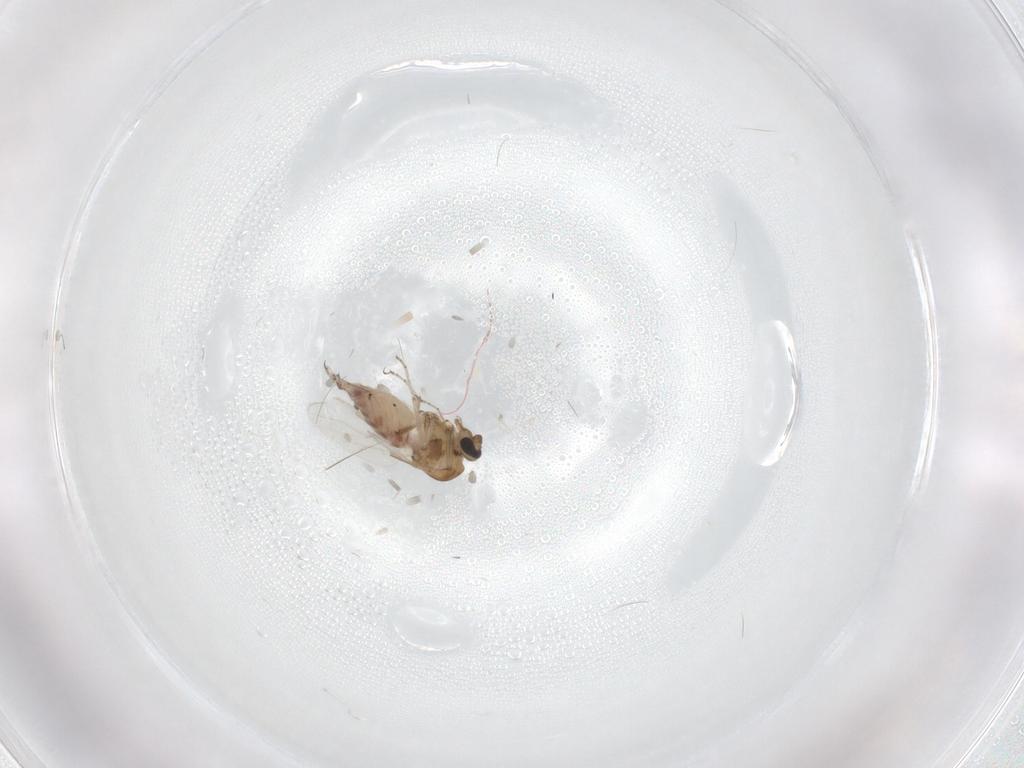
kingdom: Animalia
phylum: Arthropoda
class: Insecta
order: Diptera
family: Ceratopogonidae
